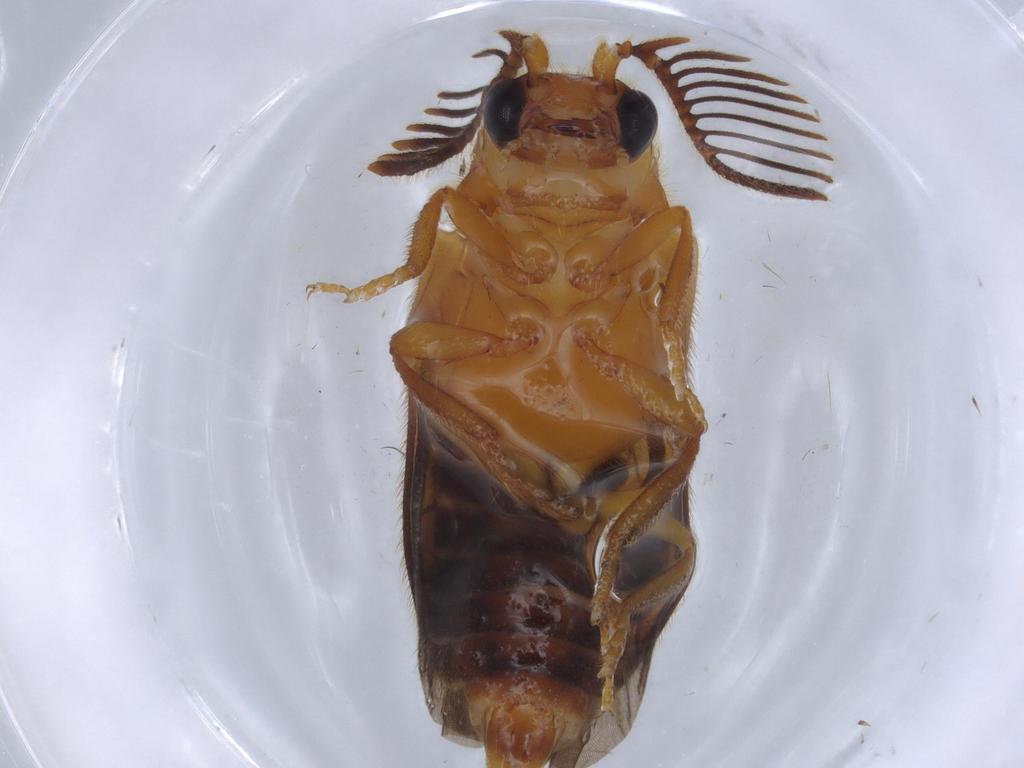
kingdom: Animalia
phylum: Arthropoda
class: Insecta
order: Coleoptera
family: Elateridae
